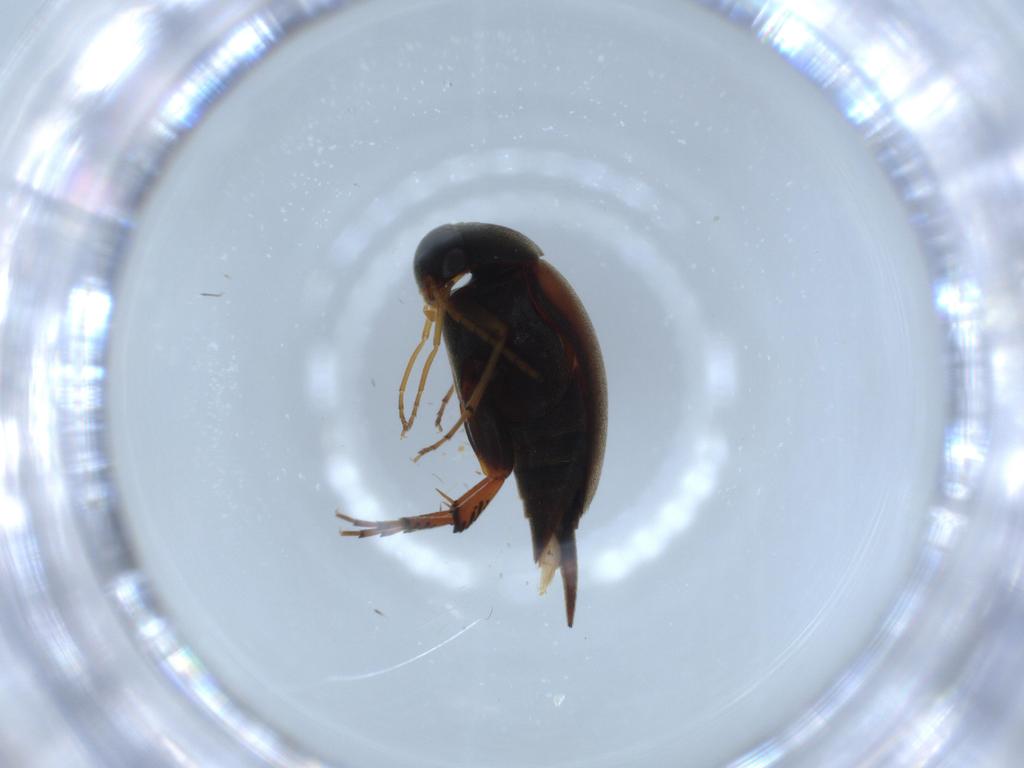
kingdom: Animalia
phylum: Arthropoda
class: Insecta
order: Coleoptera
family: Mordellidae
